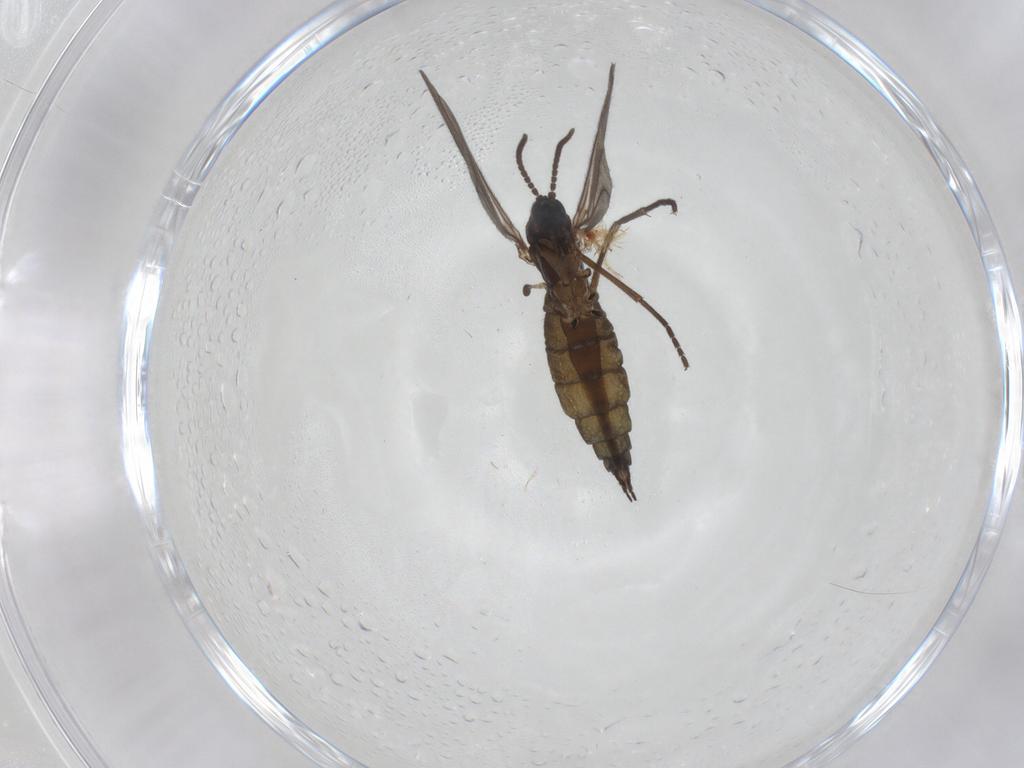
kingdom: Animalia
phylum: Arthropoda
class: Insecta
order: Diptera
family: Sciaridae
